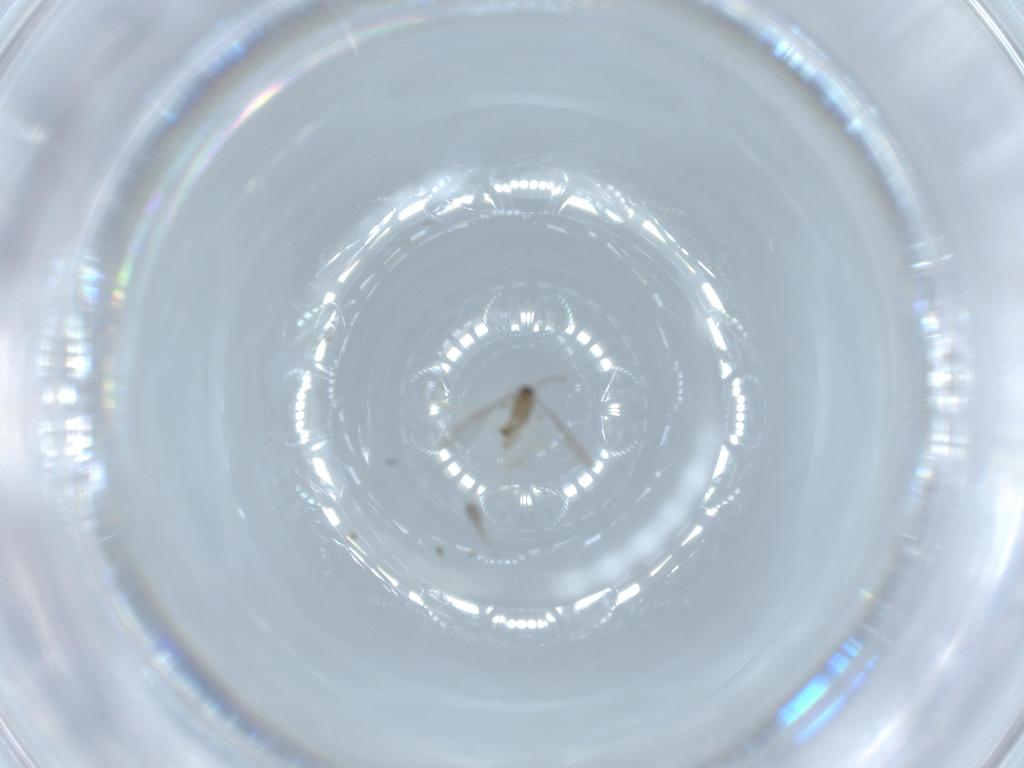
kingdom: Animalia
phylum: Arthropoda
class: Insecta
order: Diptera
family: Cecidomyiidae
